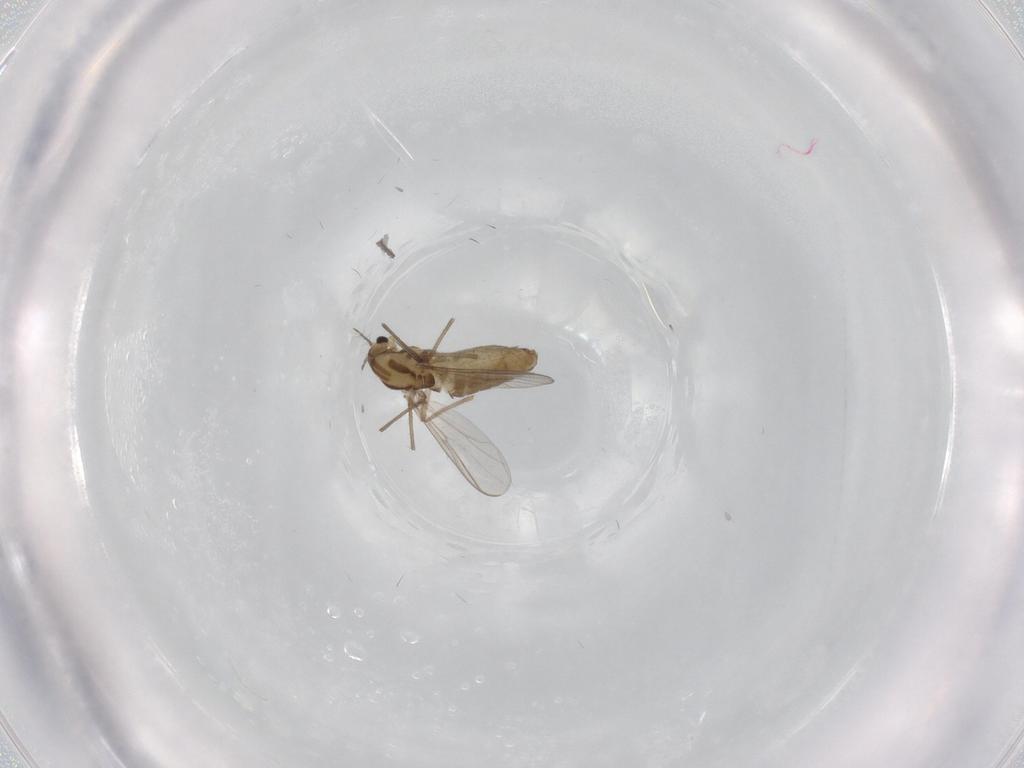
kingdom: Animalia
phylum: Arthropoda
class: Insecta
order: Diptera
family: Chironomidae
